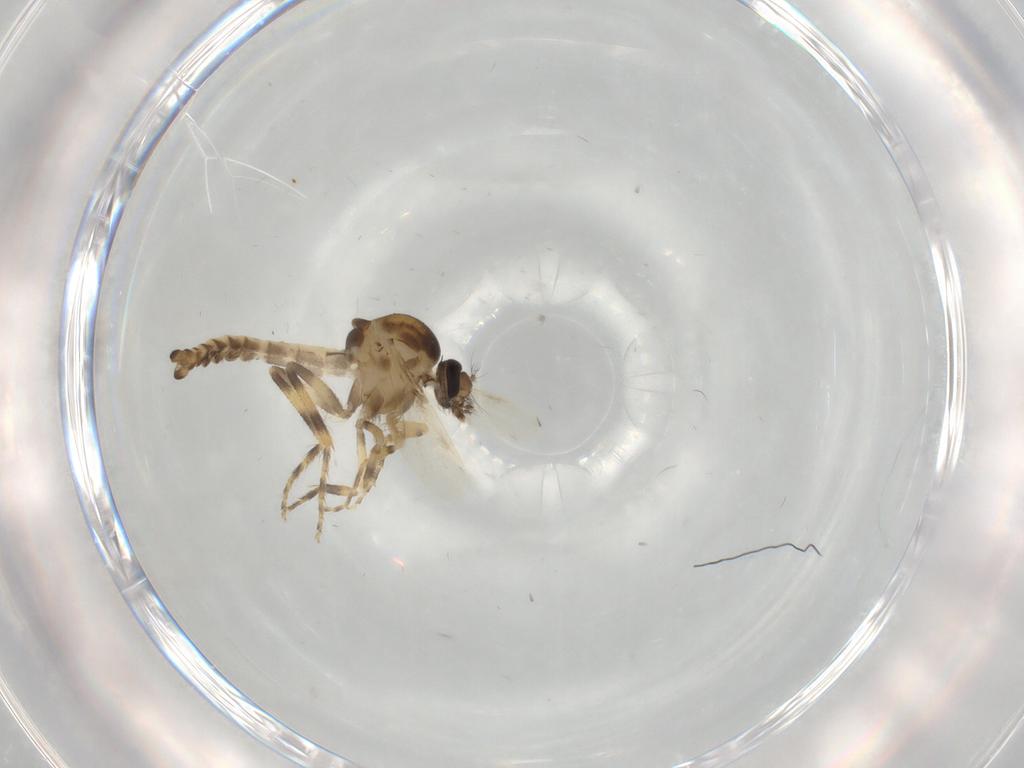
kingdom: Animalia
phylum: Arthropoda
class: Insecta
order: Diptera
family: Ceratopogonidae
